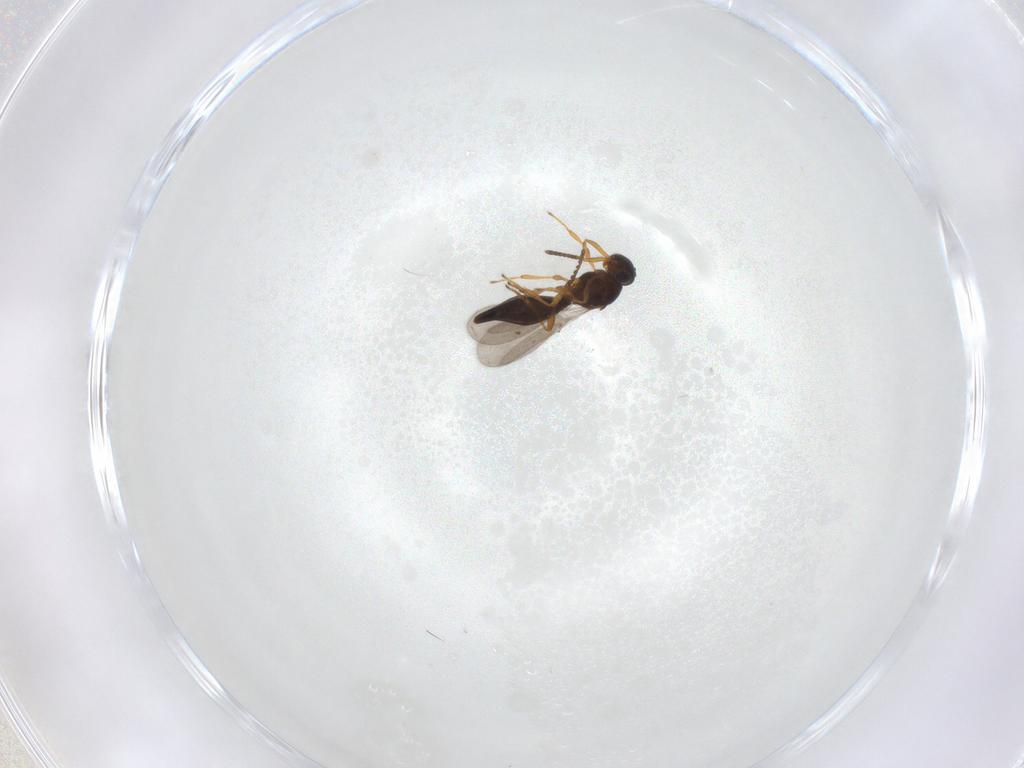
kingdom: Animalia
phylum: Arthropoda
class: Insecta
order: Hymenoptera
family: Platygastridae
